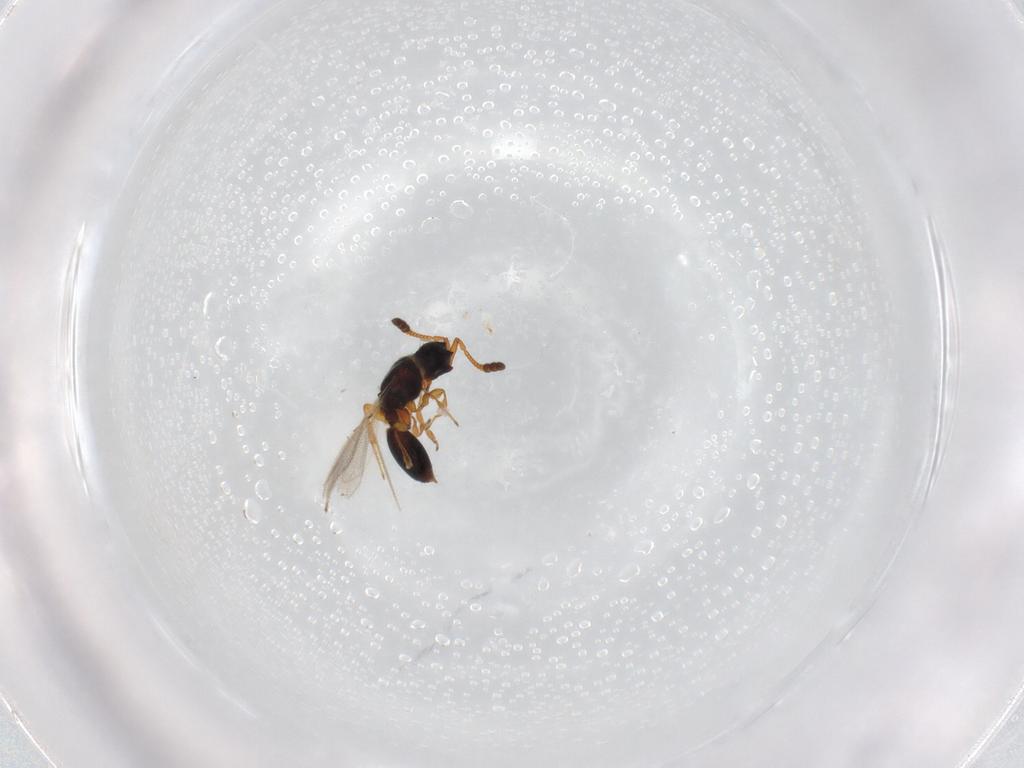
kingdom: Animalia
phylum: Arthropoda
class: Insecta
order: Hymenoptera
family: Diapriidae
